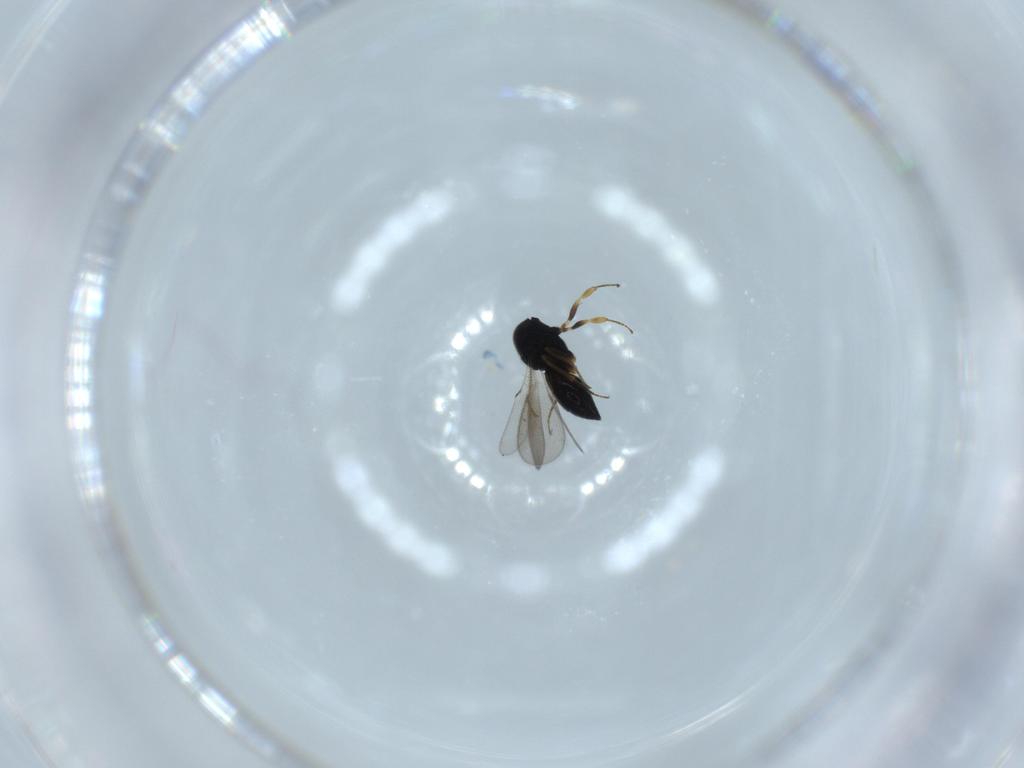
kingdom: Animalia
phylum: Arthropoda
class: Insecta
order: Hymenoptera
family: Scelionidae
